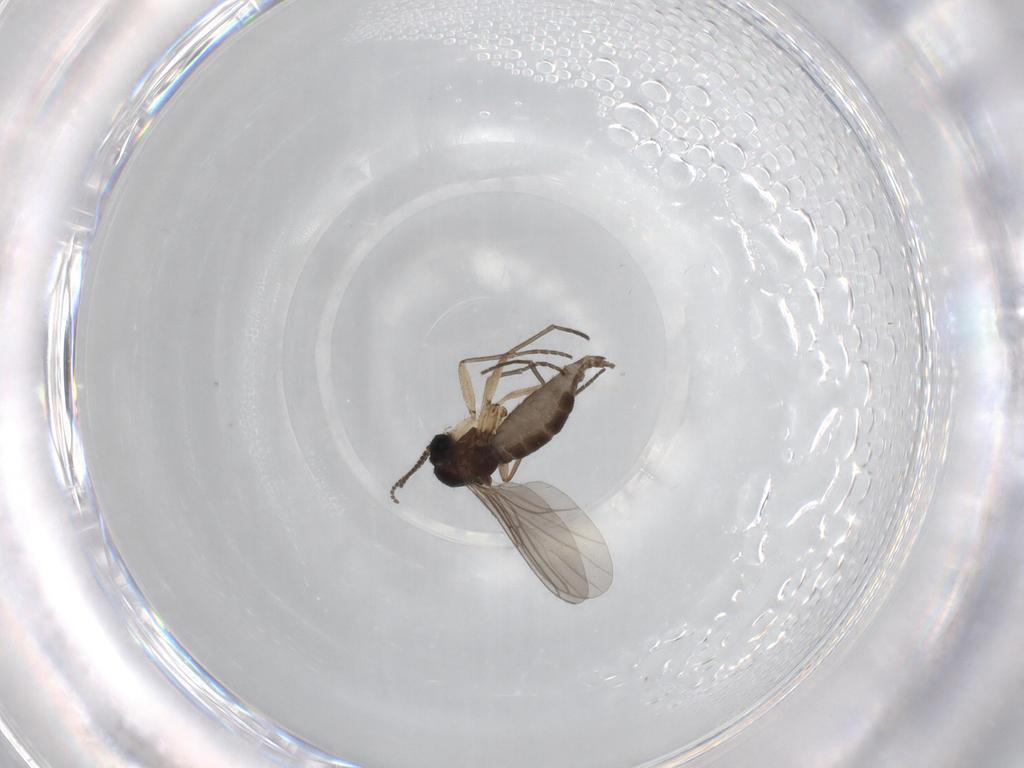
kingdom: Animalia
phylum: Arthropoda
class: Insecta
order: Diptera
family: Sciaridae
